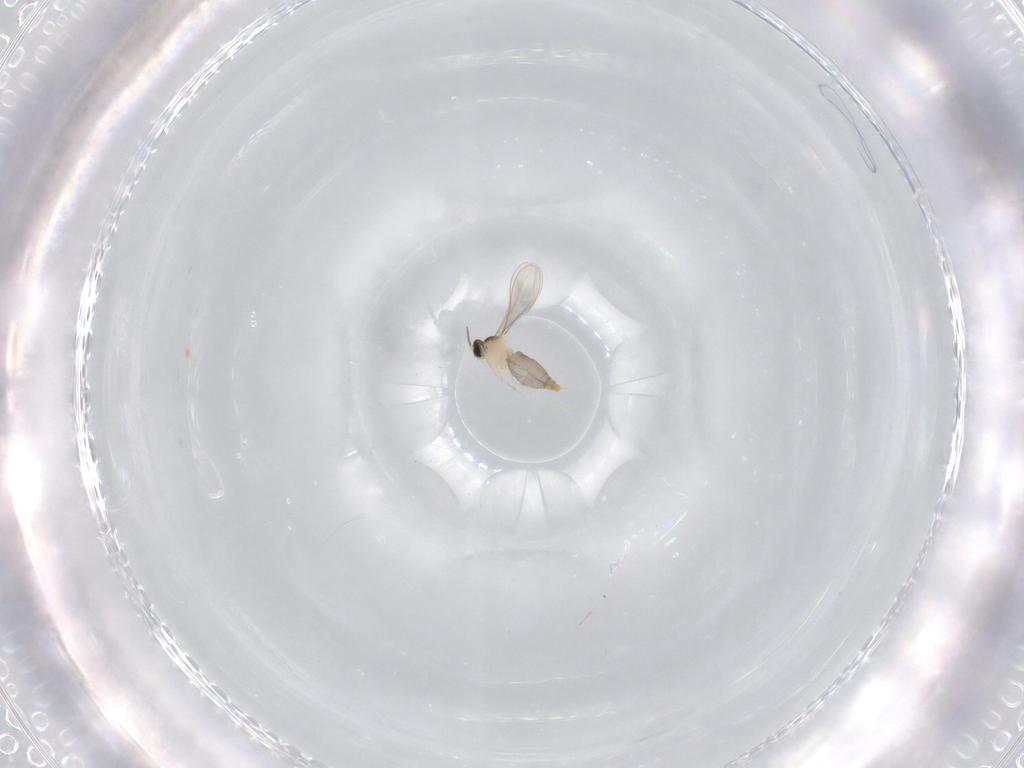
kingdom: Animalia
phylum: Arthropoda
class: Insecta
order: Diptera
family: Cecidomyiidae
